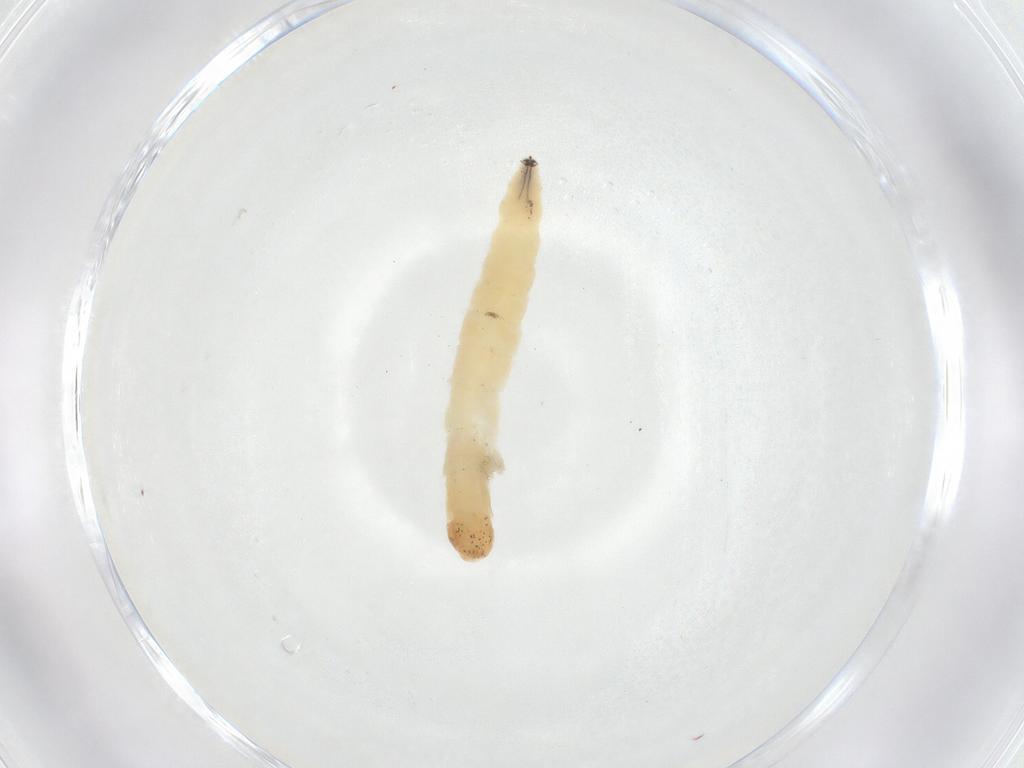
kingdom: Animalia
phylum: Arthropoda
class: Insecta
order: Diptera
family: Dolichopodidae
